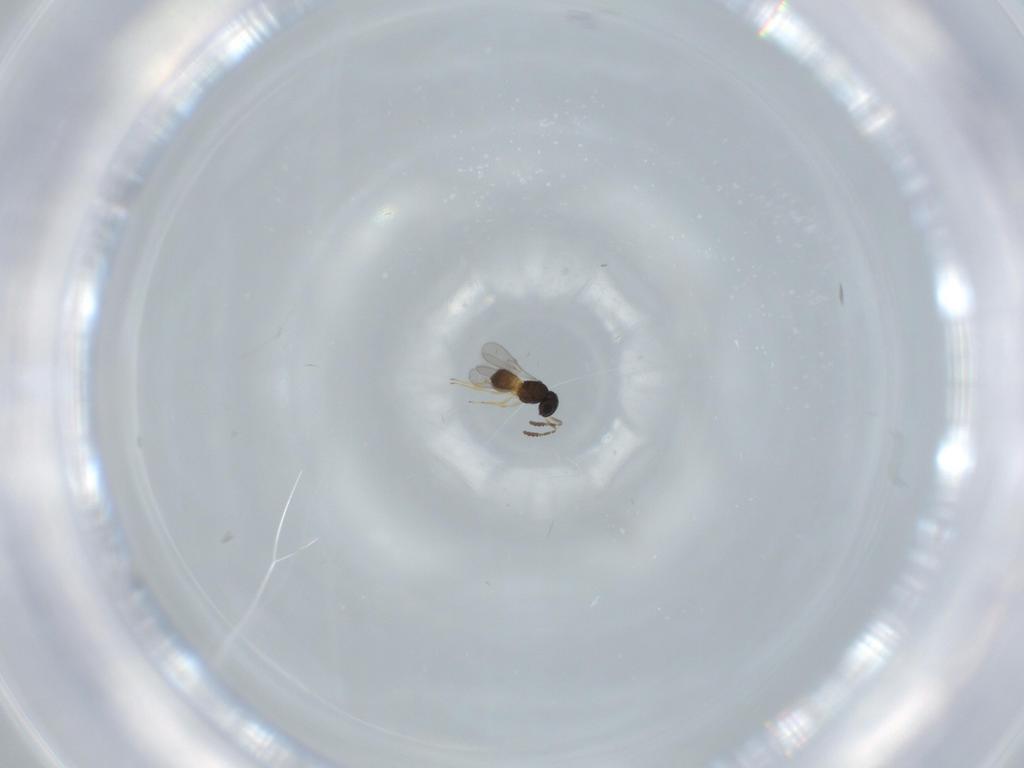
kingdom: Animalia
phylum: Arthropoda
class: Insecta
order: Hymenoptera
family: Scelionidae
